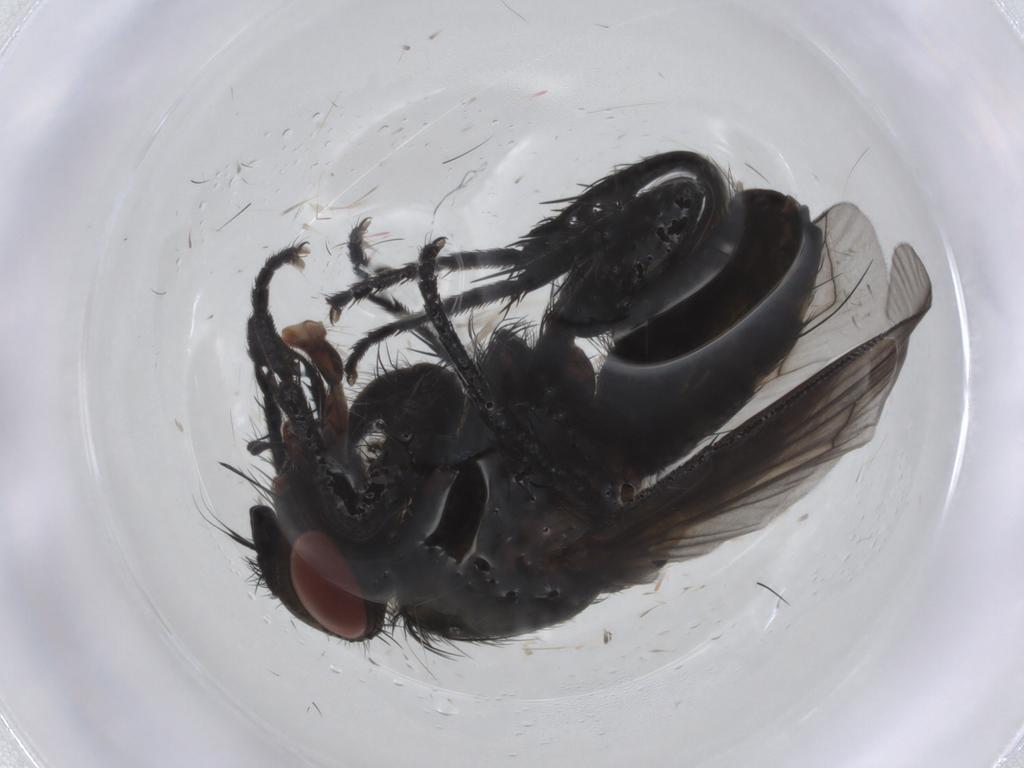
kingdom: Animalia
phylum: Arthropoda
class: Insecta
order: Diptera
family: Tachinidae
